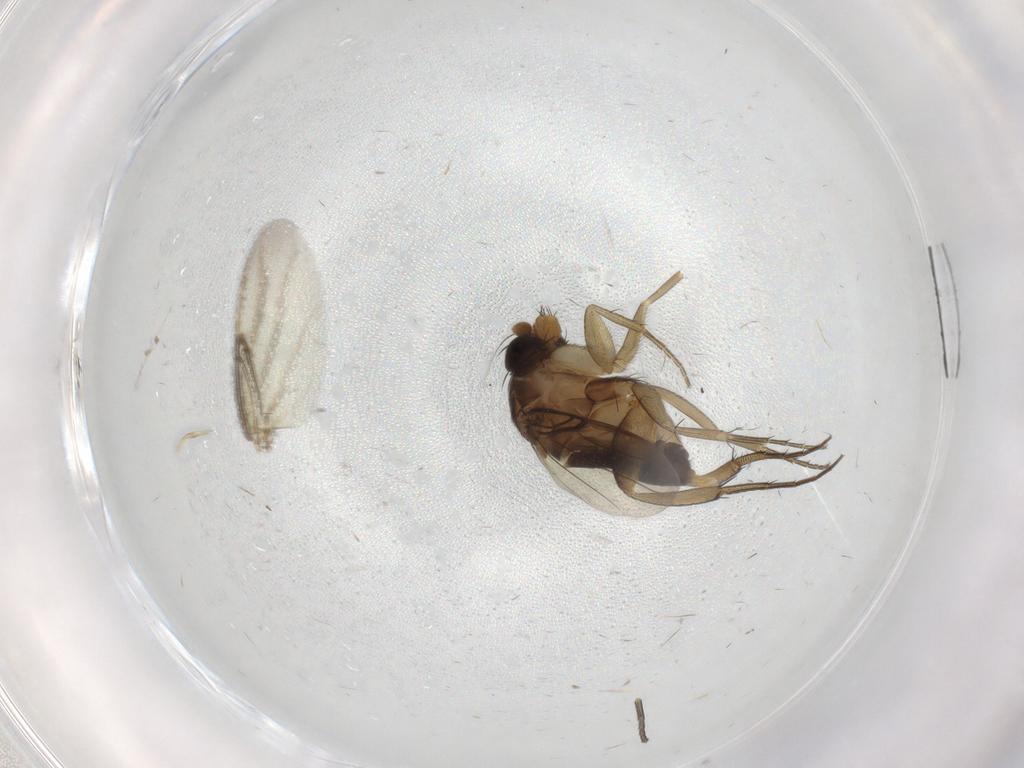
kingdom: Animalia
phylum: Arthropoda
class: Insecta
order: Diptera
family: Phoridae
